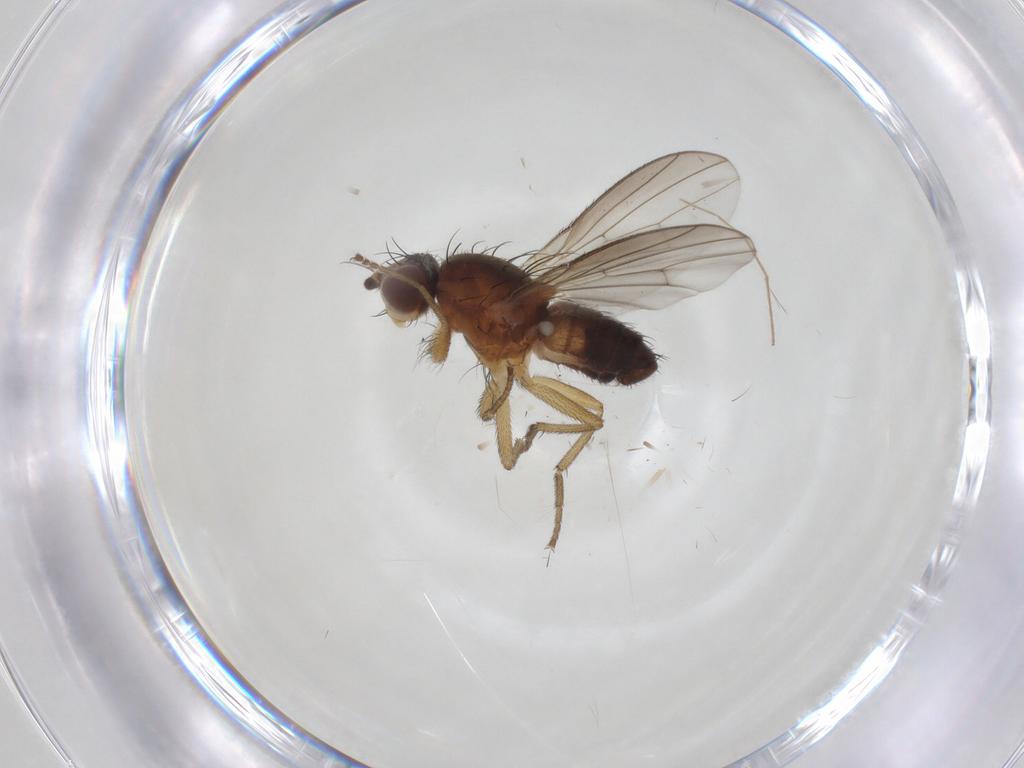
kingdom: Animalia
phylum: Arthropoda
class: Insecta
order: Diptera
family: Heleomyzidae
